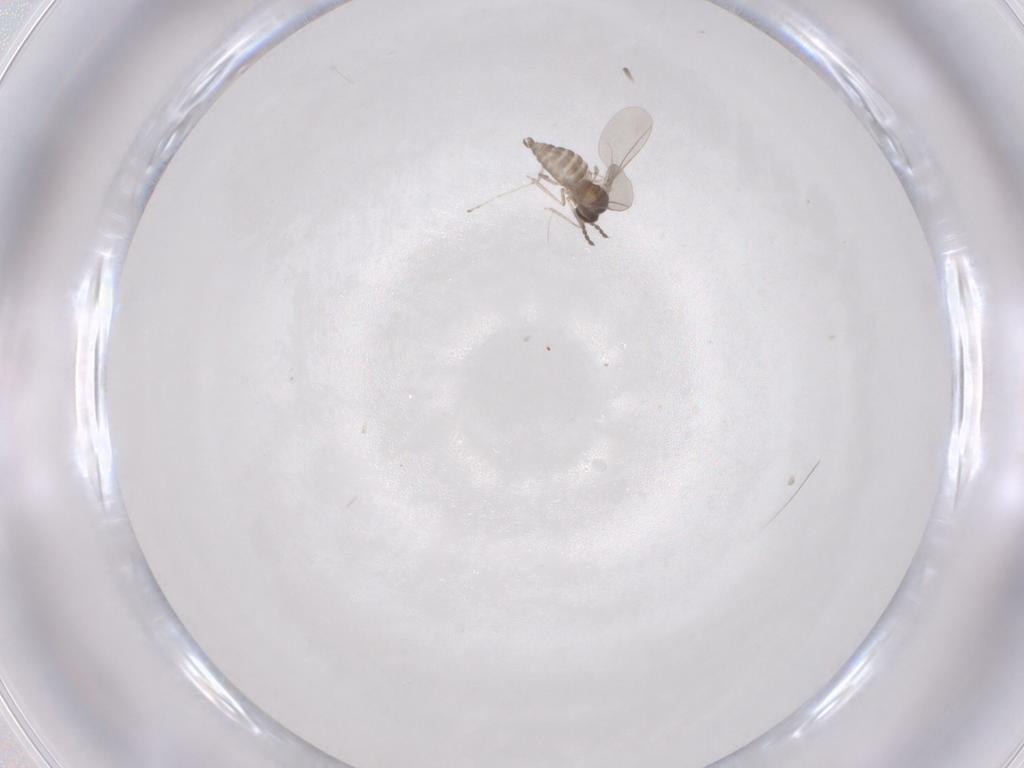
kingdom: Animalia
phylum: Arthropoda
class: Insecta
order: Diptera
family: Cecidomyiidae
